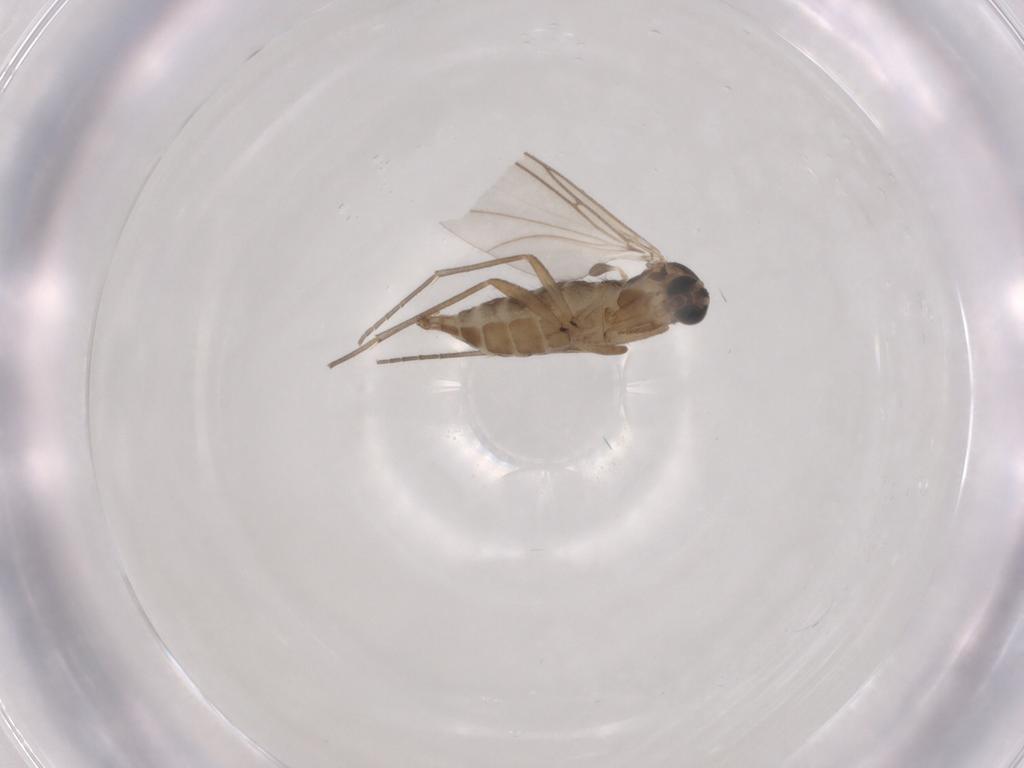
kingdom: Animalia
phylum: Arthropoda
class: Insecta
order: Diptera
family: Sciaridae
